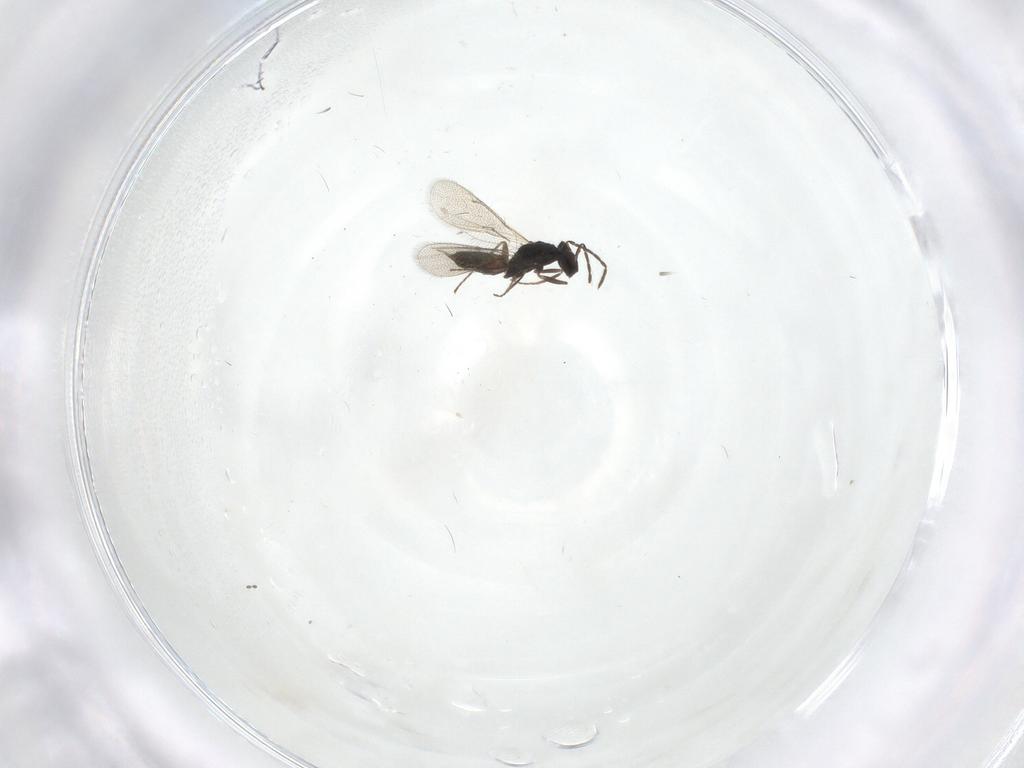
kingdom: Animalia
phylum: Arthropoda
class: Insecta
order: Hymenoptera
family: Eulophidae
